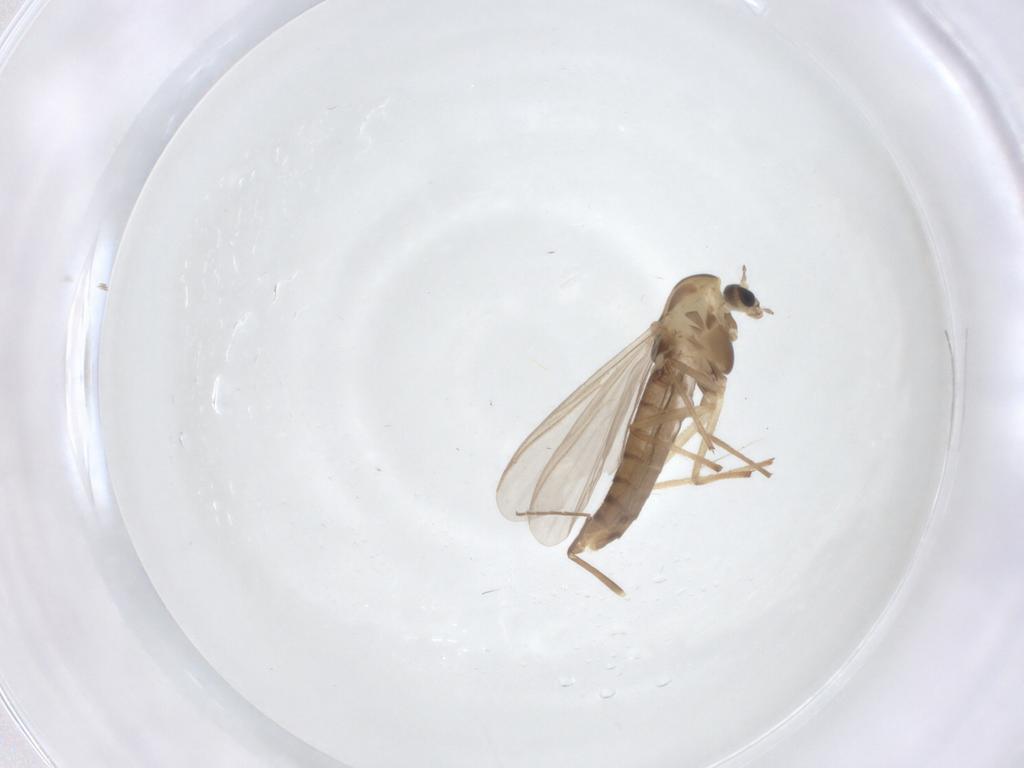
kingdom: Animalia
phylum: Arthropoda
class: Insecta
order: Diptera
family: Chironomidae
